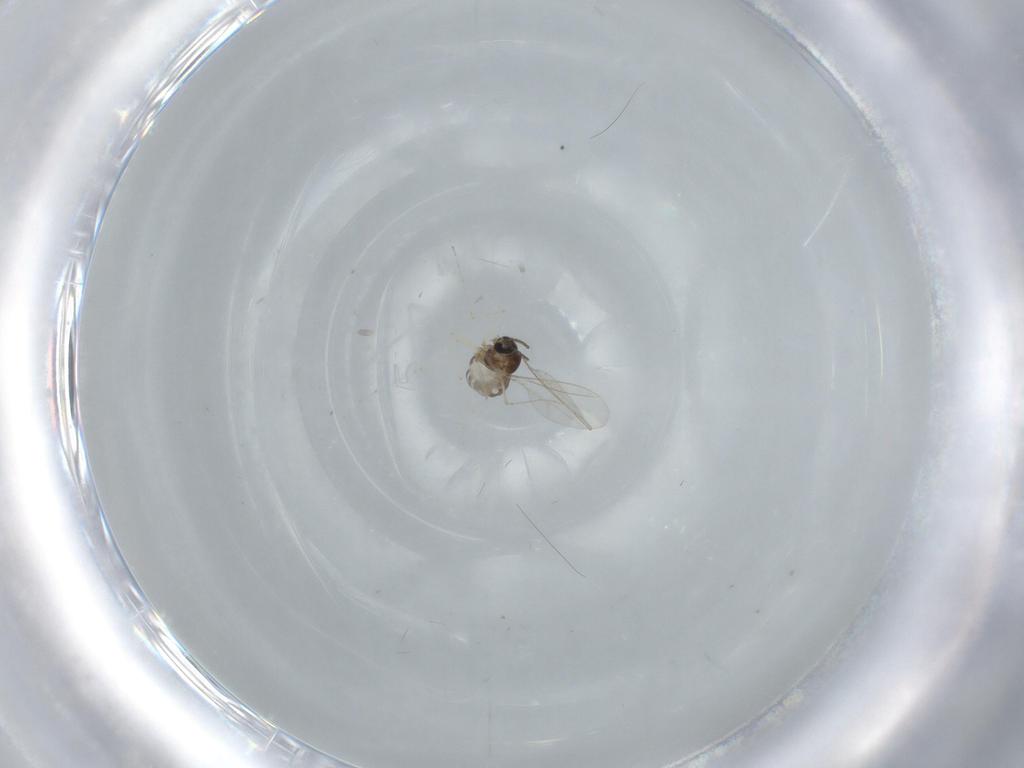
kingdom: Animalia
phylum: Arthropoda
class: Insecta
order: Diptera
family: Cecidomyiidae
